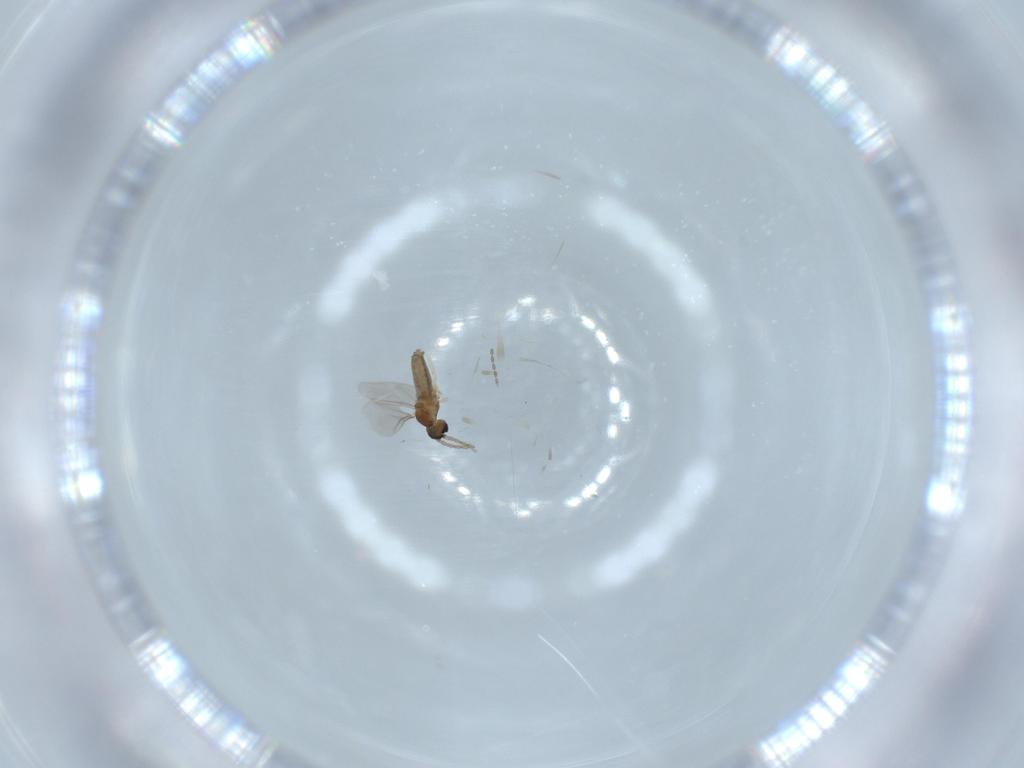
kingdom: Animalia
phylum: Arthropoda
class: Insecta
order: Diptera
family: Cecidomyiidae
